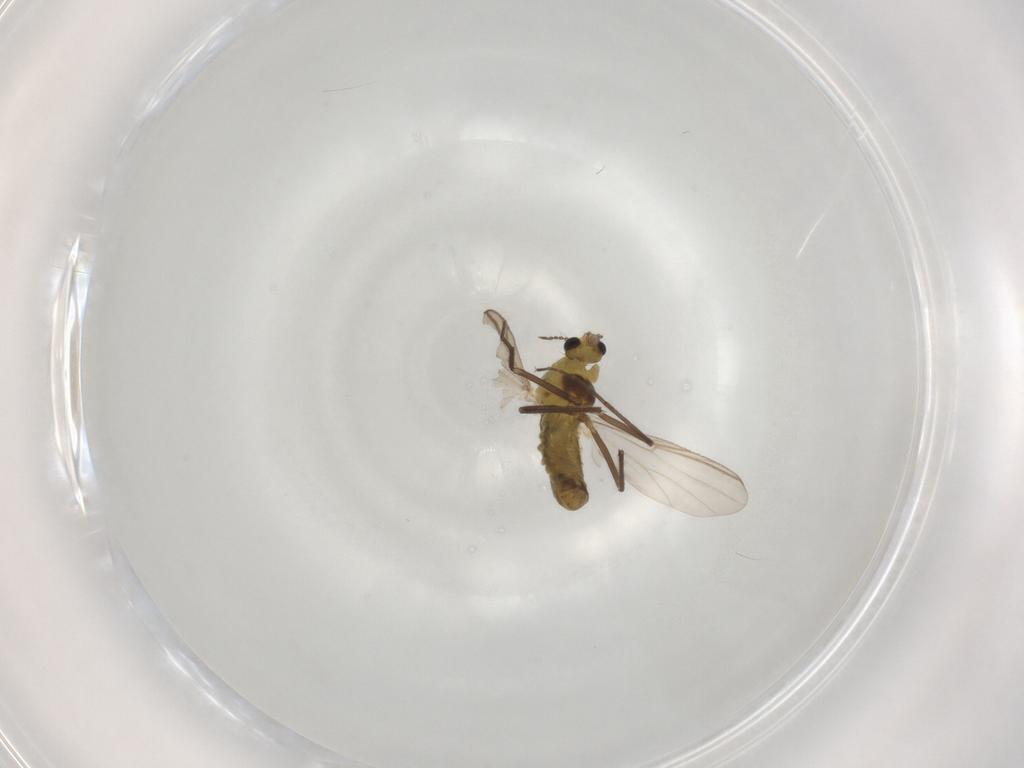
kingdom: Animalia
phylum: Arthropoda
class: Insecta
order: Diptera
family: Chironomidae
